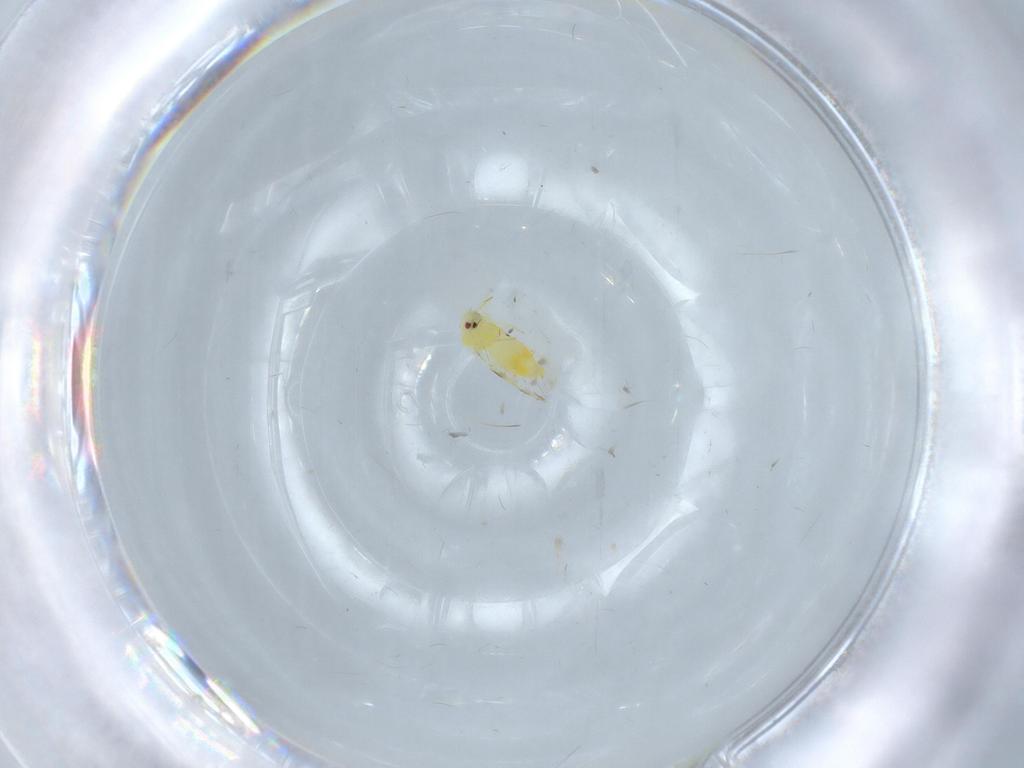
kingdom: Animalia
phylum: Arthropoda
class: Insecta
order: Hemiptera
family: Aleyrodidae
